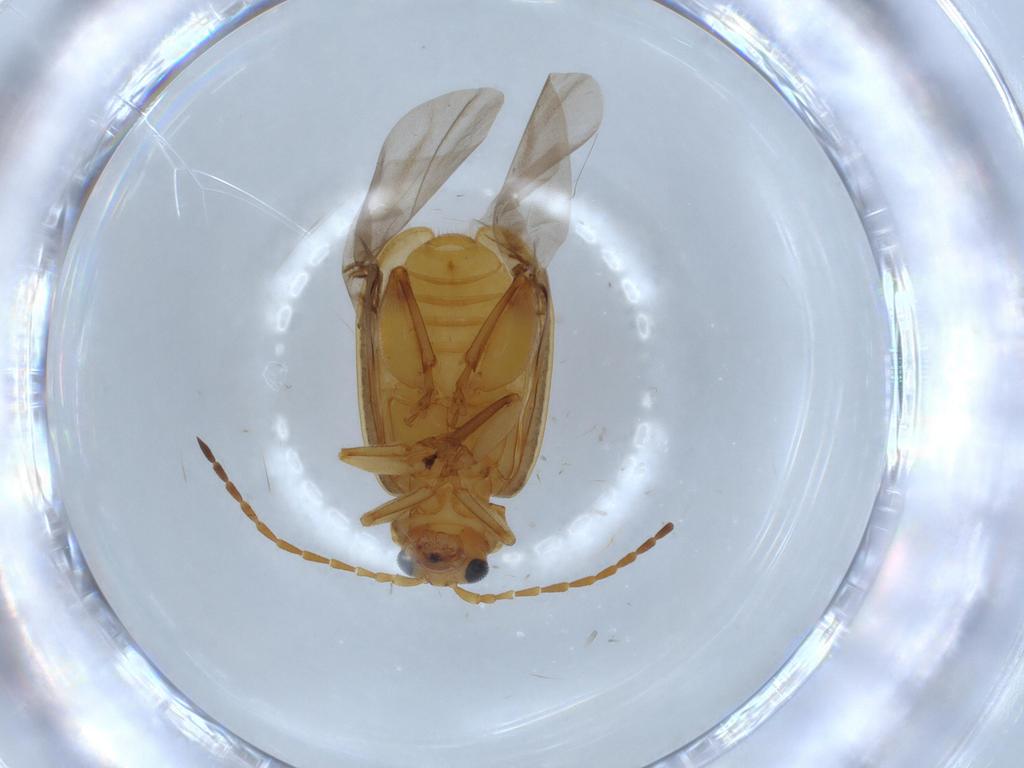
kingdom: Animalia
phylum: Arthropoda
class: Insecta
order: Coleoptera
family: Chrysomelidae
